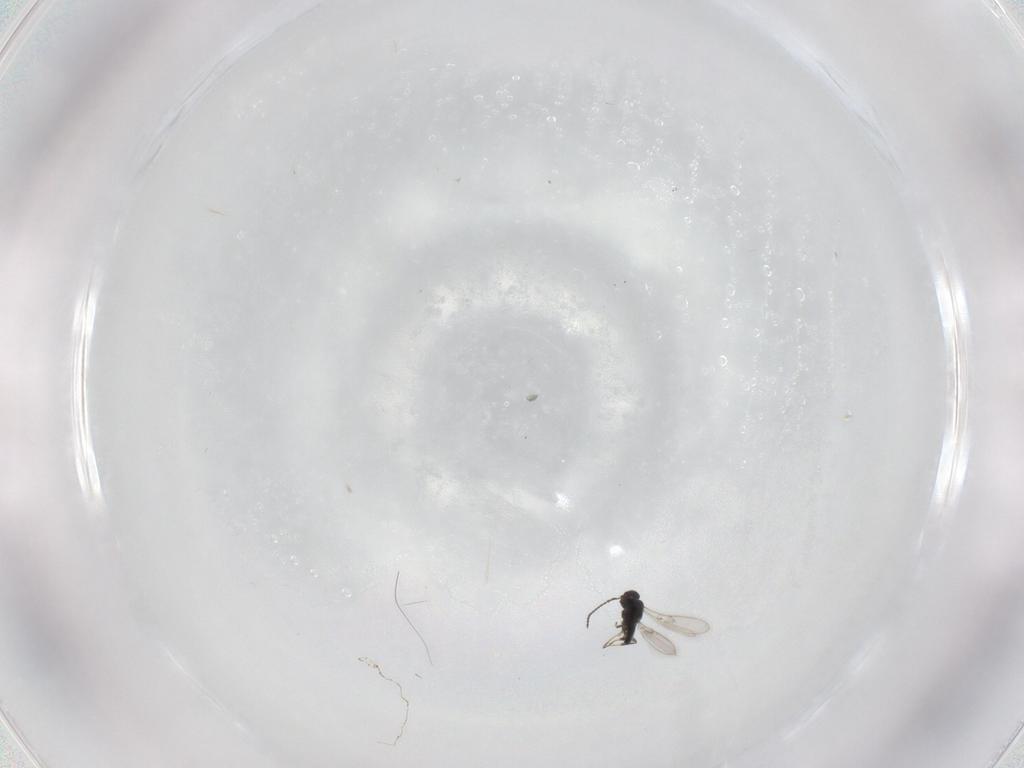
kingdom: Animalia
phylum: Arthropoda
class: Insecta
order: Hymenoptera
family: Scelionidae
